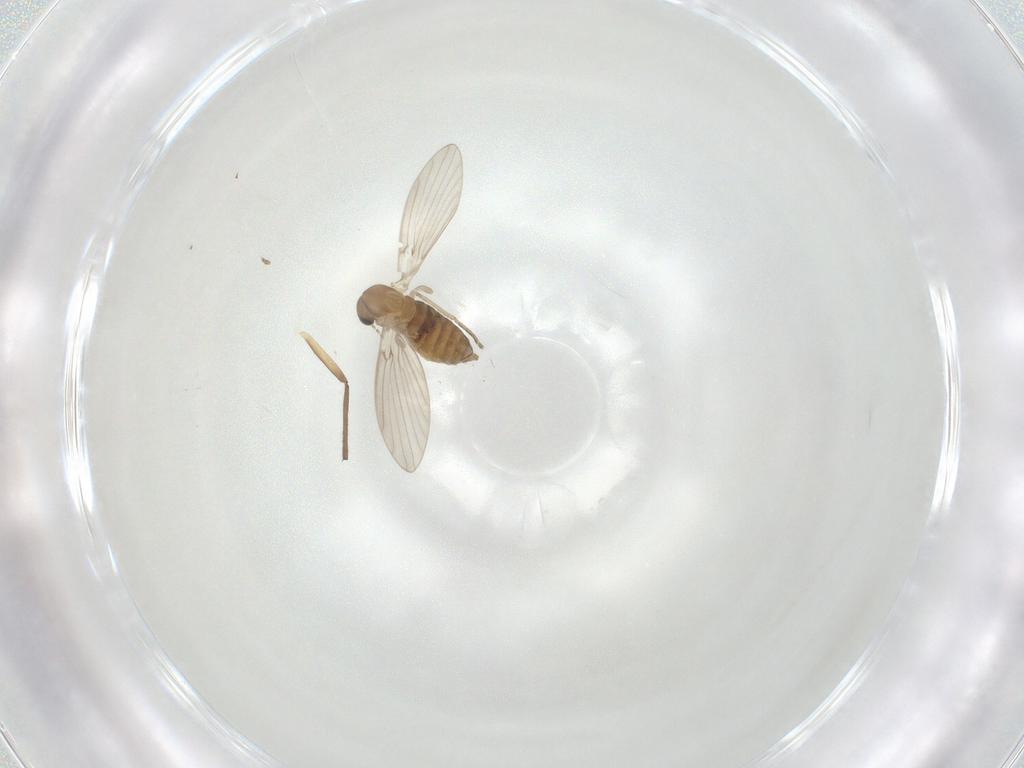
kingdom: Animalia
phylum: Arthropoda
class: Insecta
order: Diptera
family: Chironomidae
